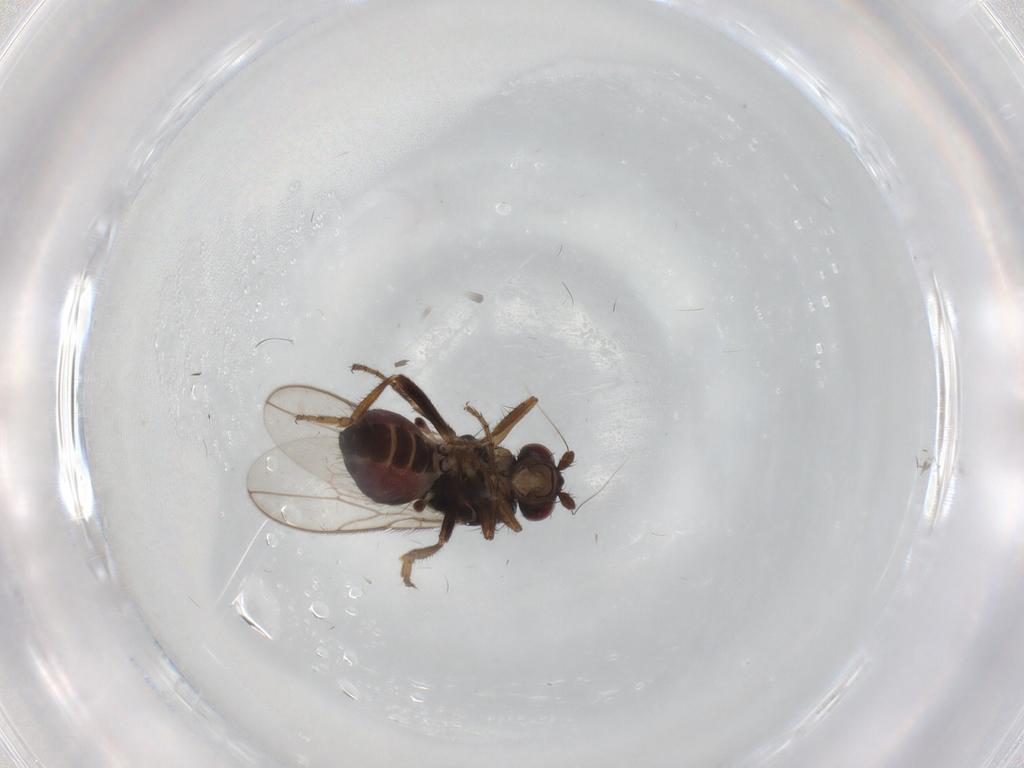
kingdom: Animalia
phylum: Arthropoda
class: Insecta
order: Diptera
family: Sphaeroceridae
